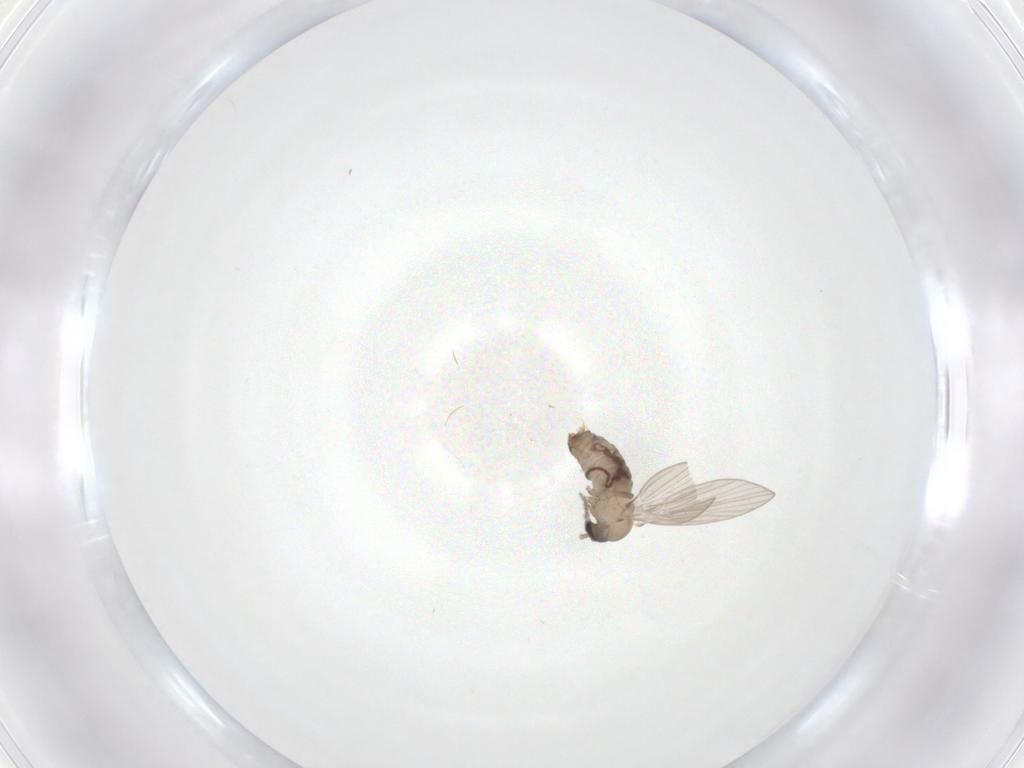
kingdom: Animalia
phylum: Arthropoda
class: Insecta
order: Diptera
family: Psychodidae
